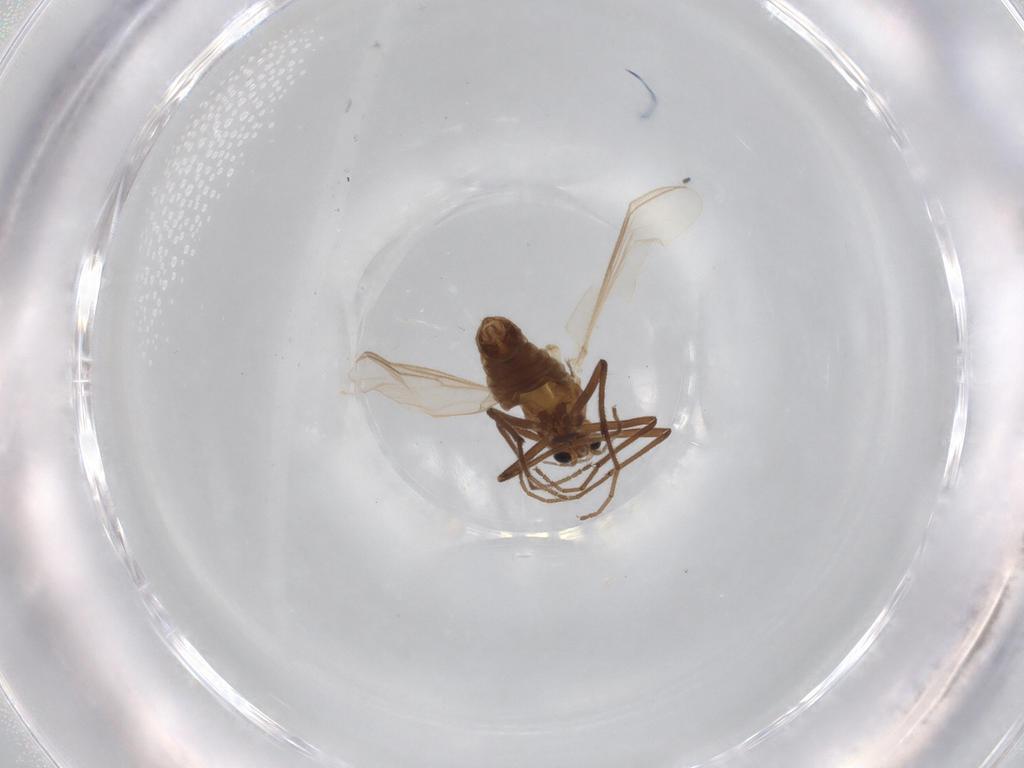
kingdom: Animalia
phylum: Arthropoda
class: Insecta
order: Diptera
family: Chironomidae
